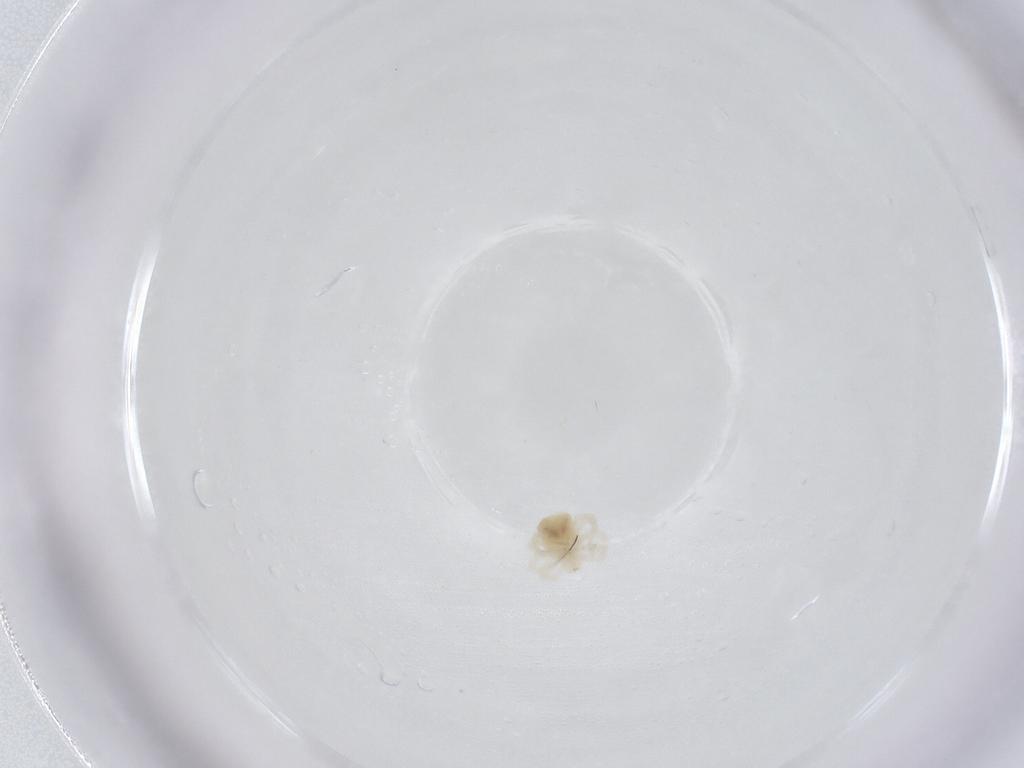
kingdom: Animalia
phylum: Arthropoda
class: Arachnida
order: Trombidiformes
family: Anystidae
